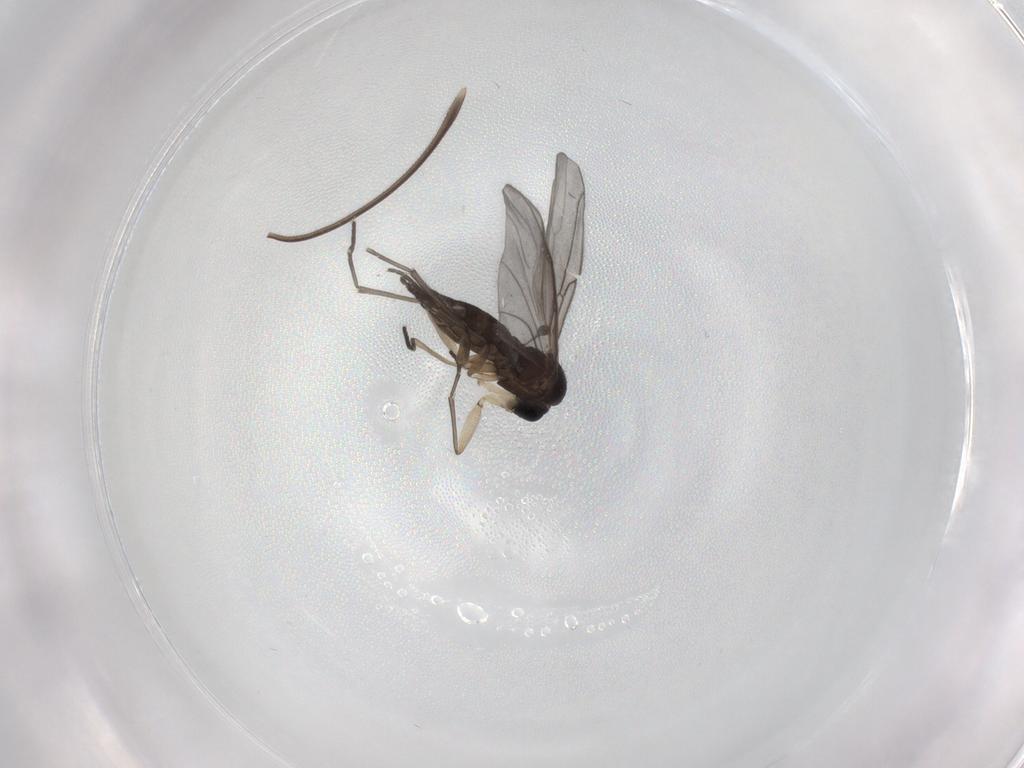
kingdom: Animalia
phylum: Arthropoda
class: Insecta
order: Diptera
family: Sciaridae
